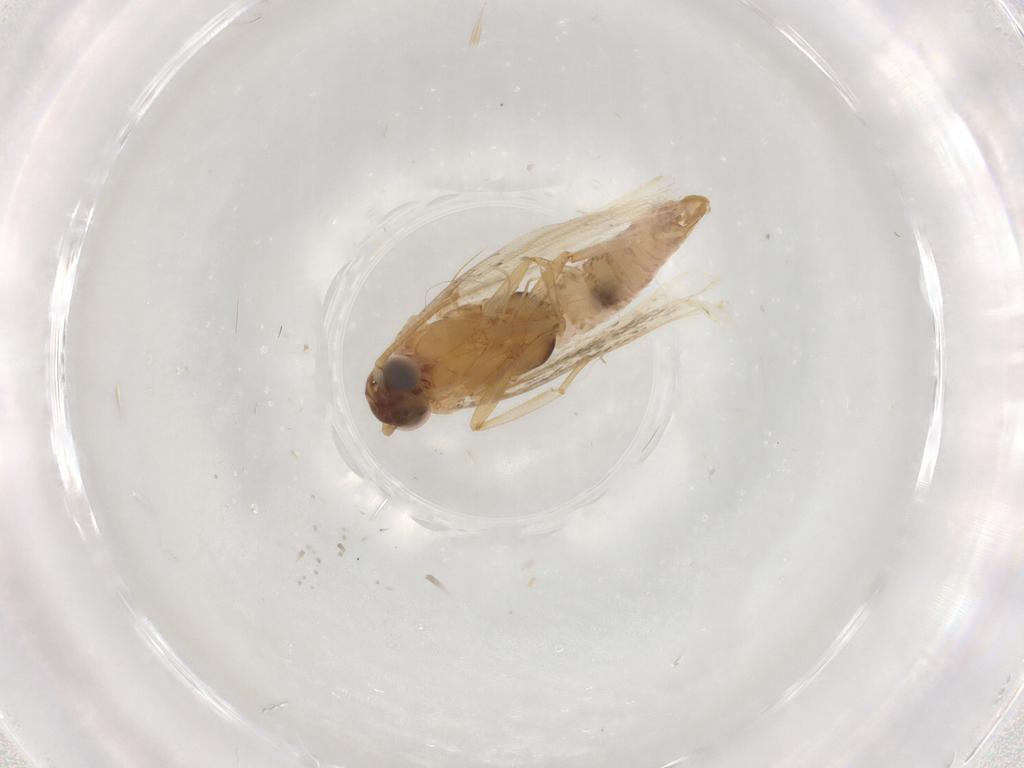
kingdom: Animalia
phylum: Arthropoda
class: Insecta
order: Lepidoptera
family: Plutellidae
